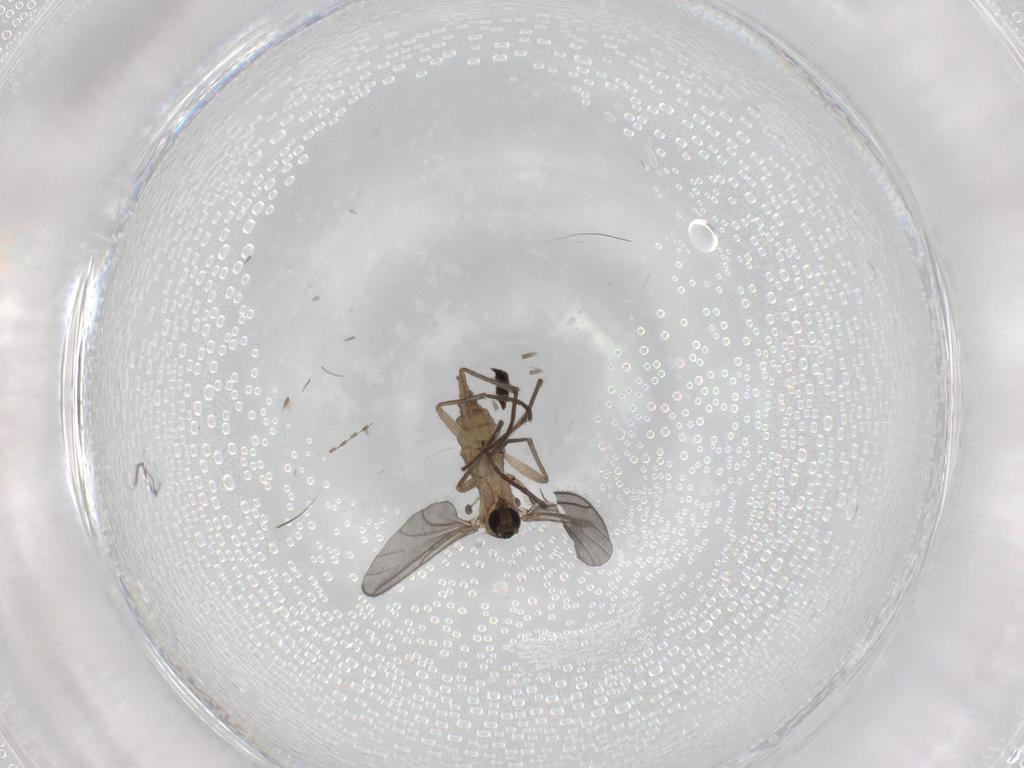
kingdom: Animalia
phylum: Arthropoda
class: Insecta
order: Diptera
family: Sciaridae
